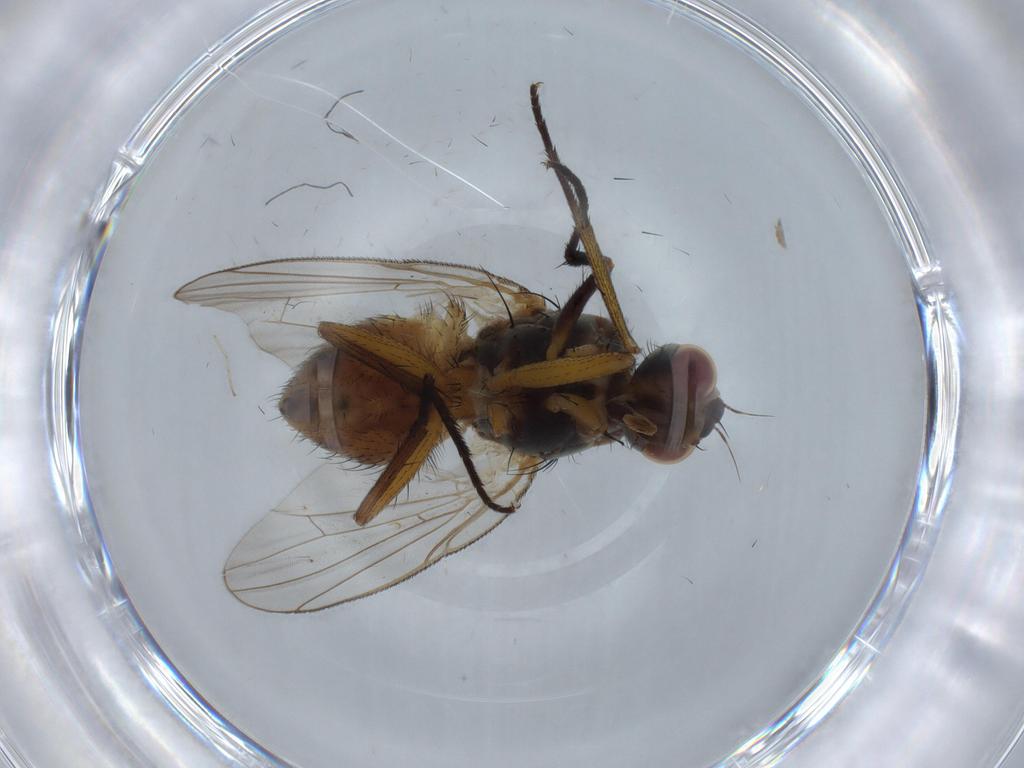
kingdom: Animalia
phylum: Arthropoda
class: Insecta
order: Diptera
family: Muscidae
